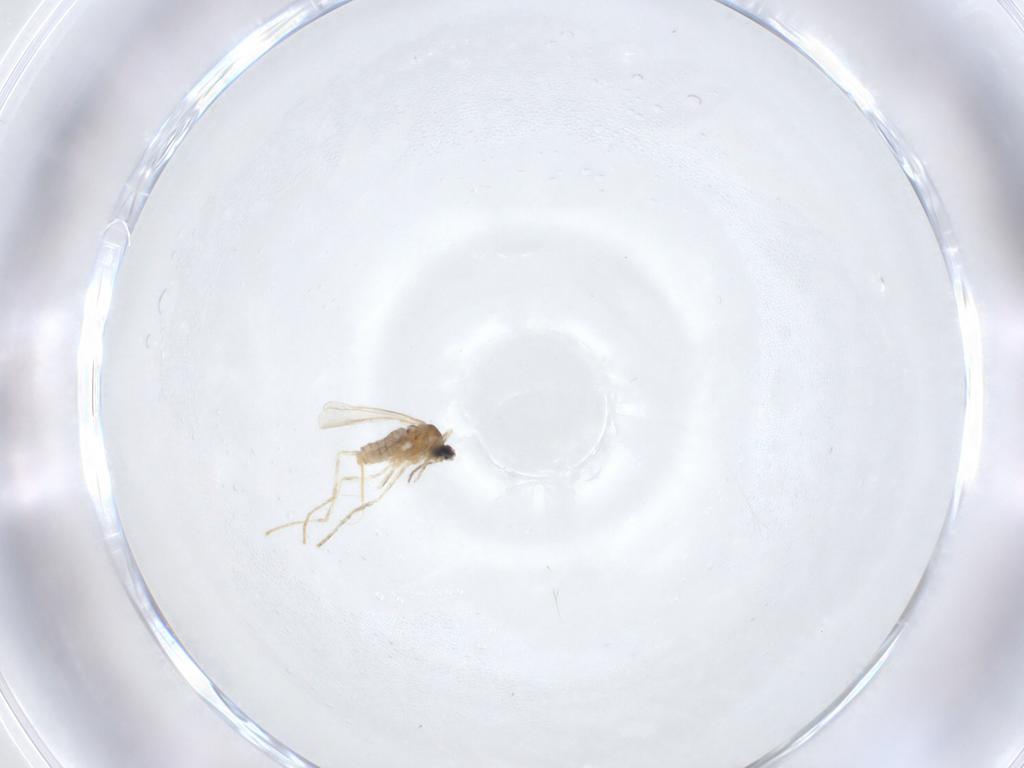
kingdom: Animalia
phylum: Arthropoda
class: Insecta
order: Diptera
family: Cecidomyiidae
